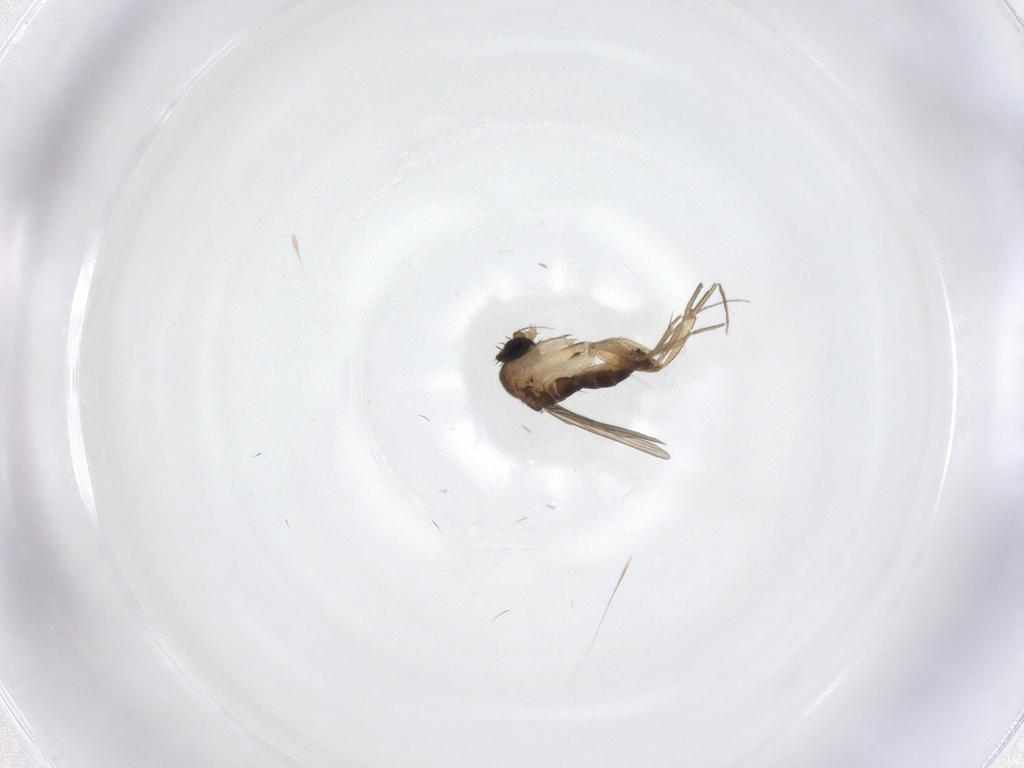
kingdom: Animalia
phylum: Arthropoda
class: Insecta
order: Diptera
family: Phoridae
